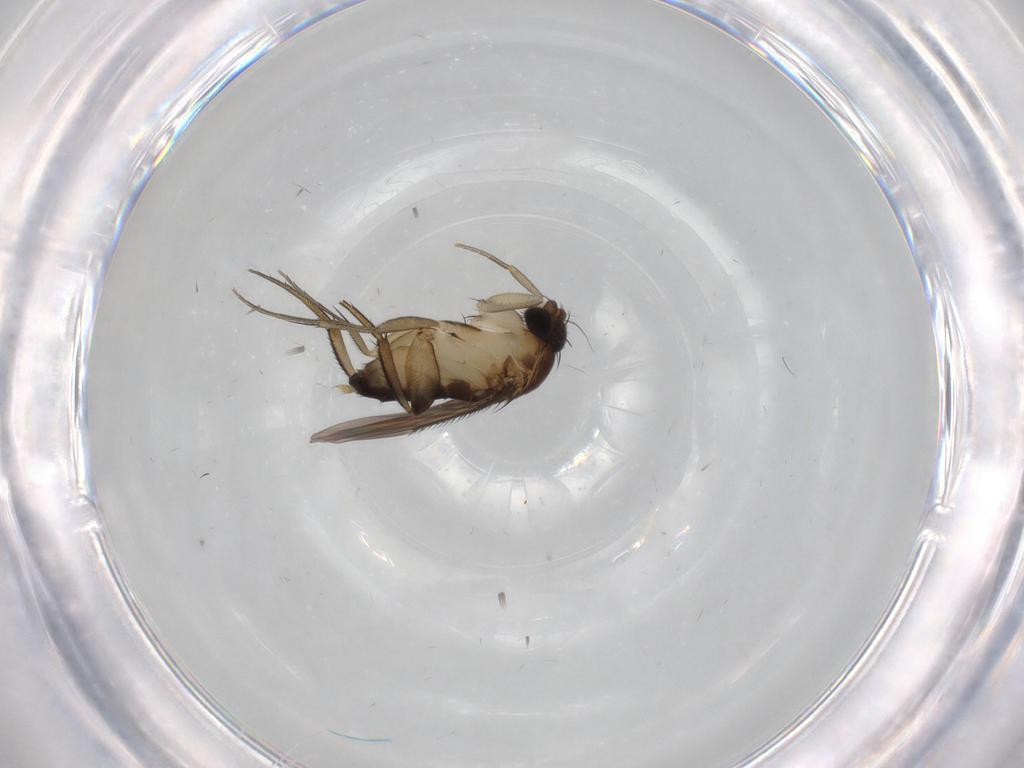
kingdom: Animalia
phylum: Arthropoda
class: Insecta
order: Diptera
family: Phoridae
